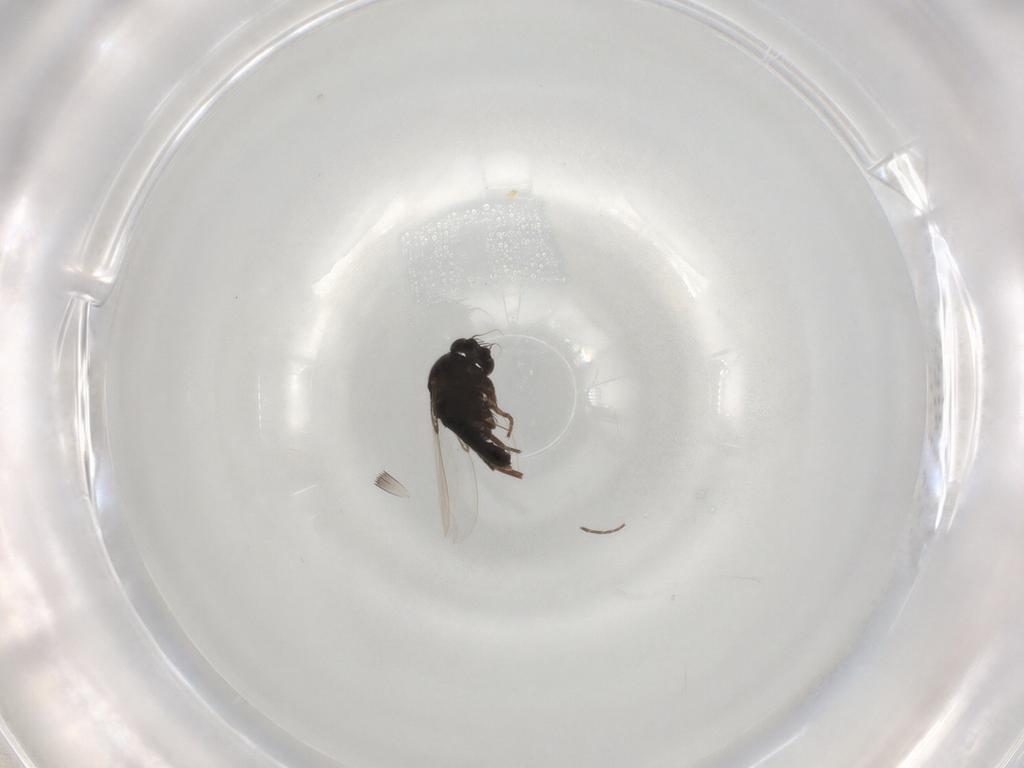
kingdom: Animalia
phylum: Arthropoda
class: Insecta
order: Diptera
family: Phoridae
